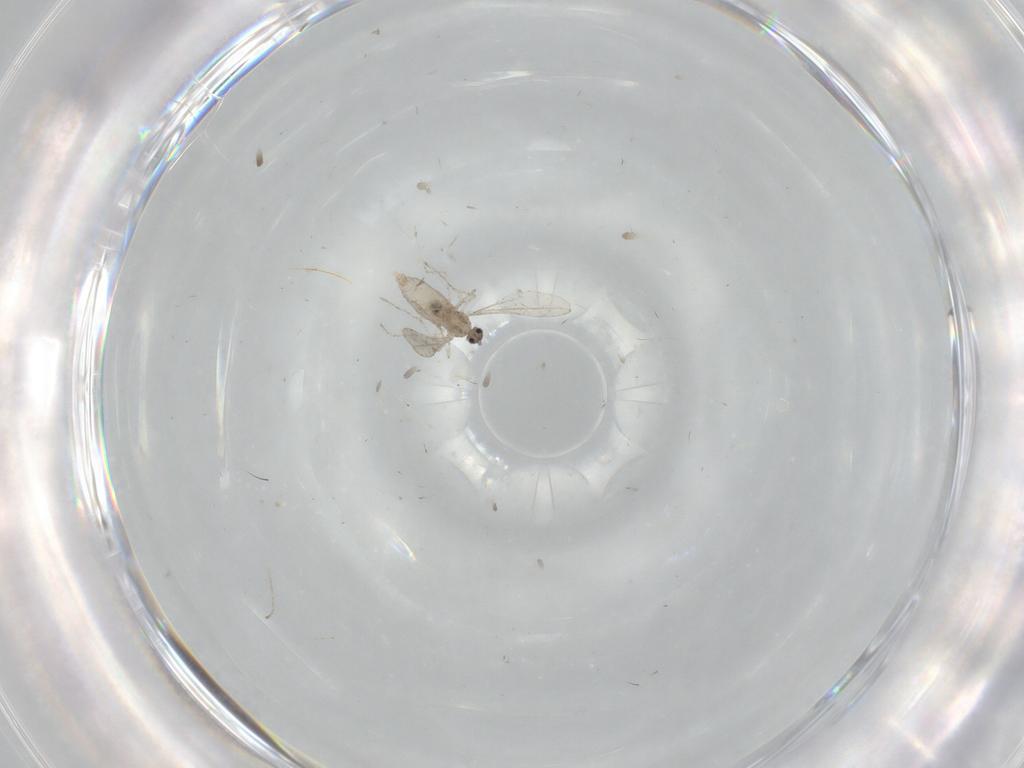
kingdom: Animalia
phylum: Arthropoda
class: Insecta
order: Diptera
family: Cecidomyiidae
